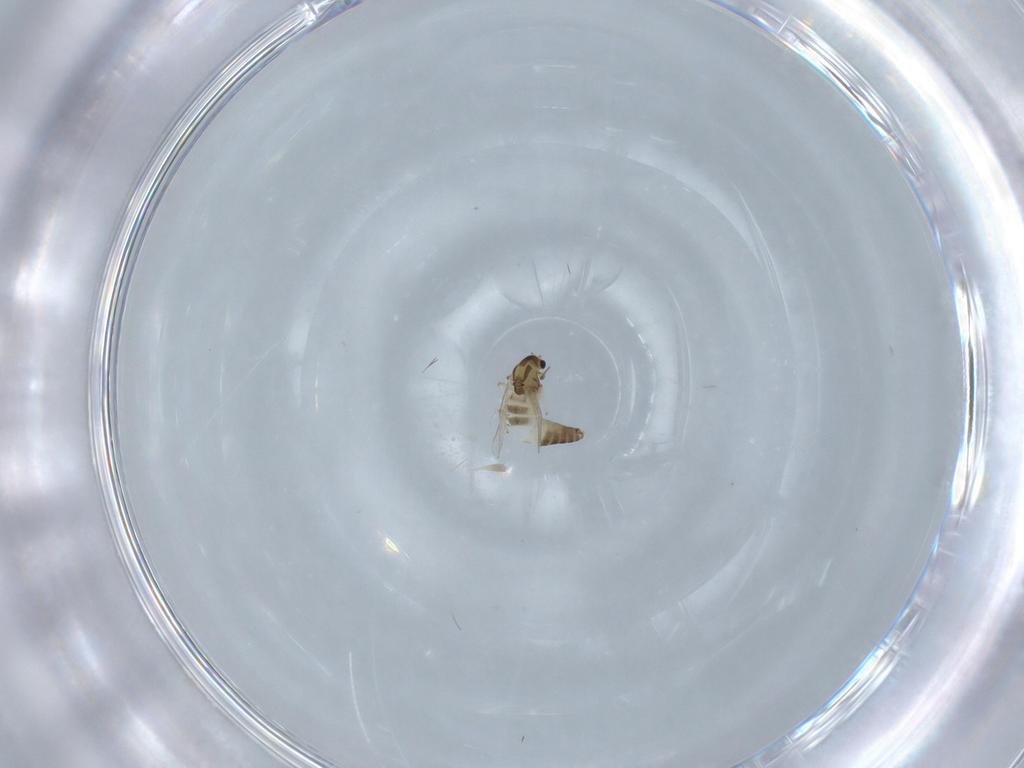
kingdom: Animalia
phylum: Arthropoda
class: Insecta
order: Diptera
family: Chironomidae
